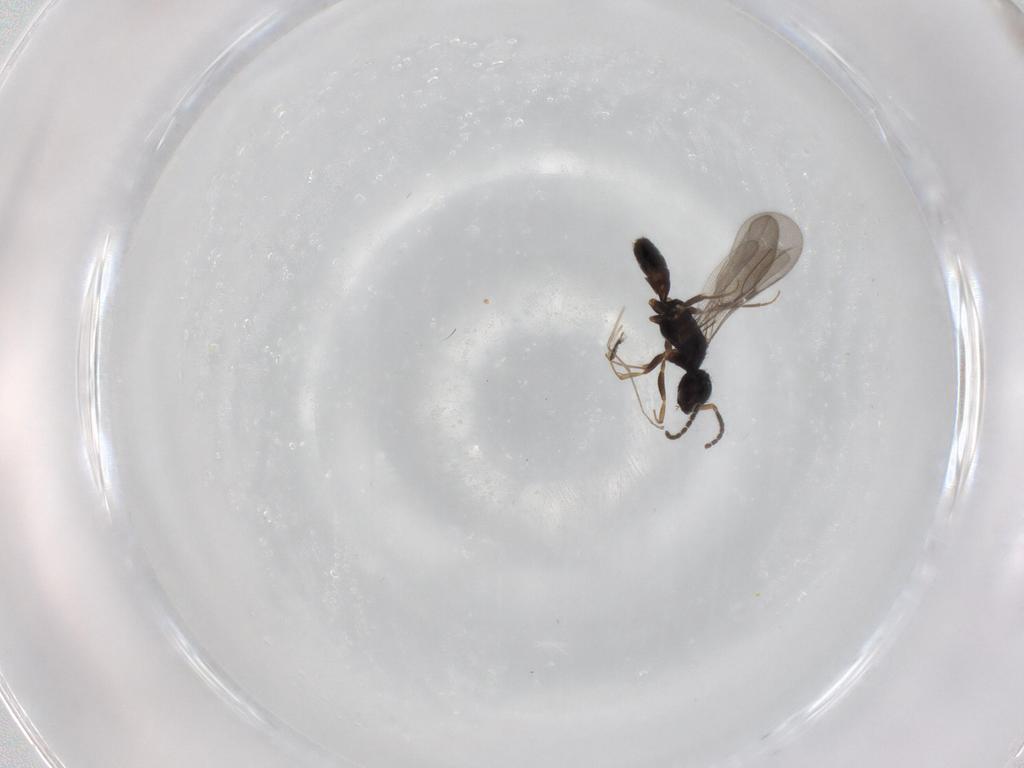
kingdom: Animalia
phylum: Arthropoda
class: Insecta
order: Hymenoptera
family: Bethylidae
